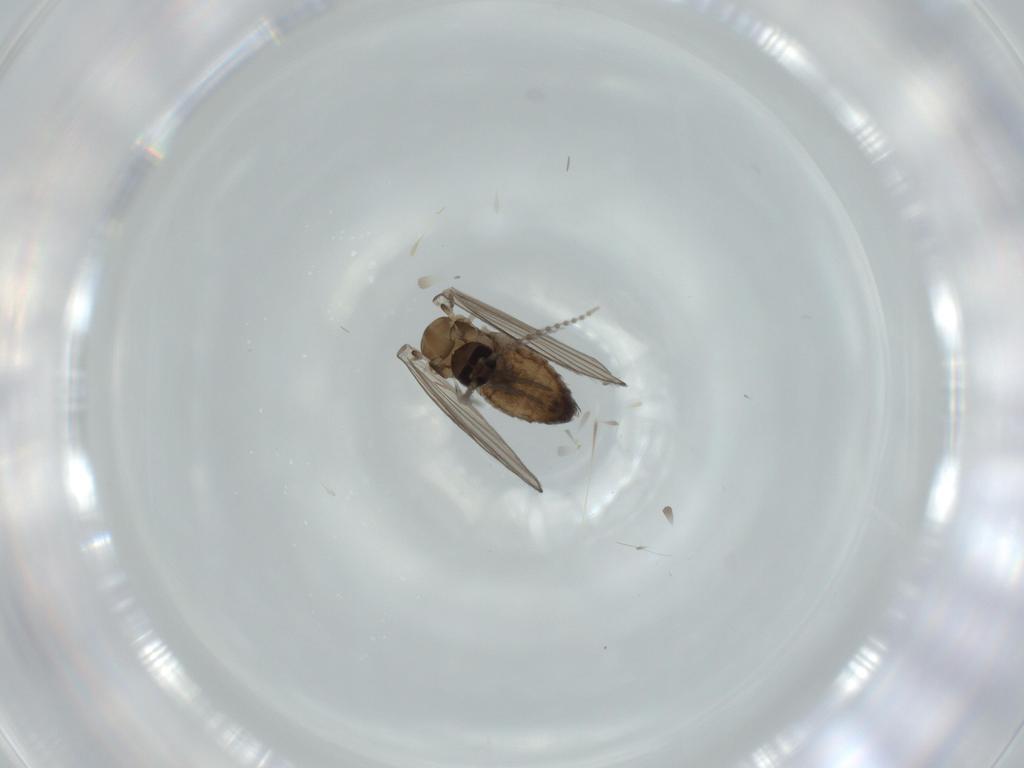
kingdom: Animalia
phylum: Arthropoda
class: Insecta
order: Diptera
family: Psychodidae
